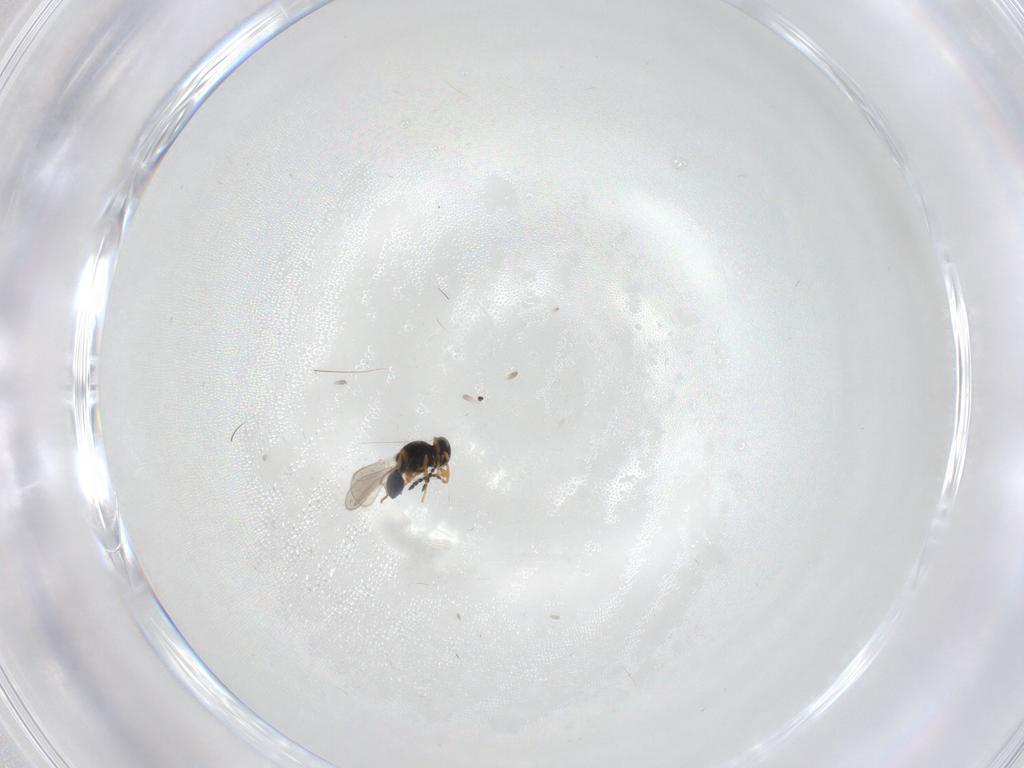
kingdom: Animalia
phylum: Arthropoda
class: Insecta
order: Hymenoptera
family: Platygastridae
